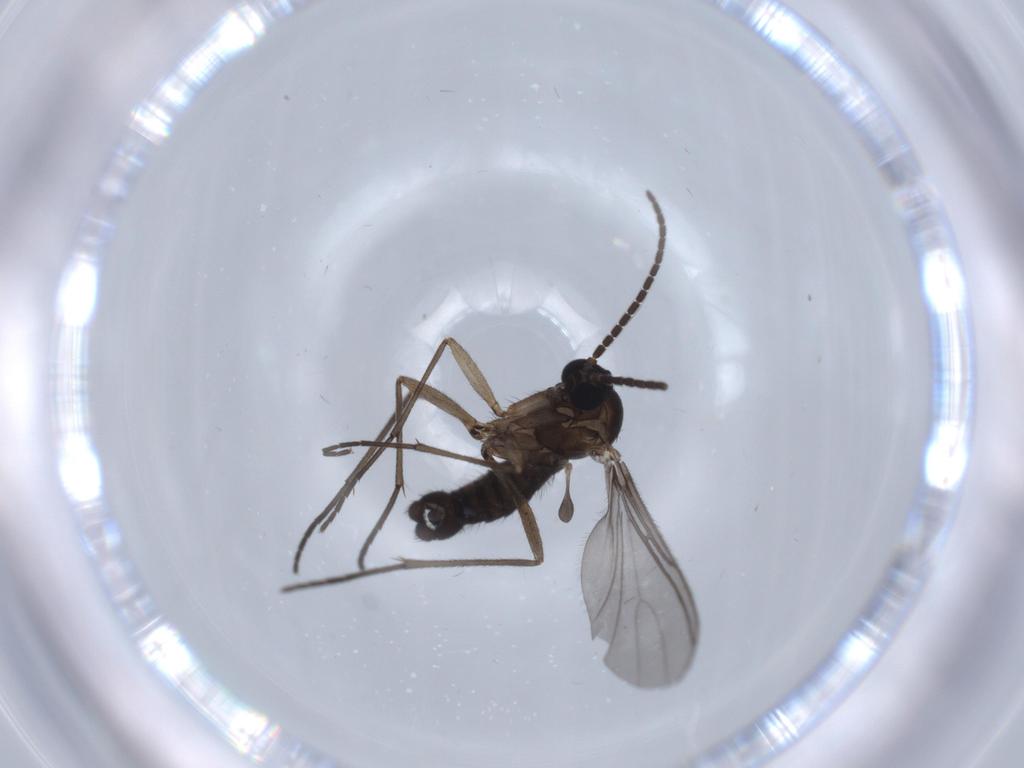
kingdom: Animalia
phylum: Arthropoda
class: Insecta
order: Diptera
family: Sciaridae
